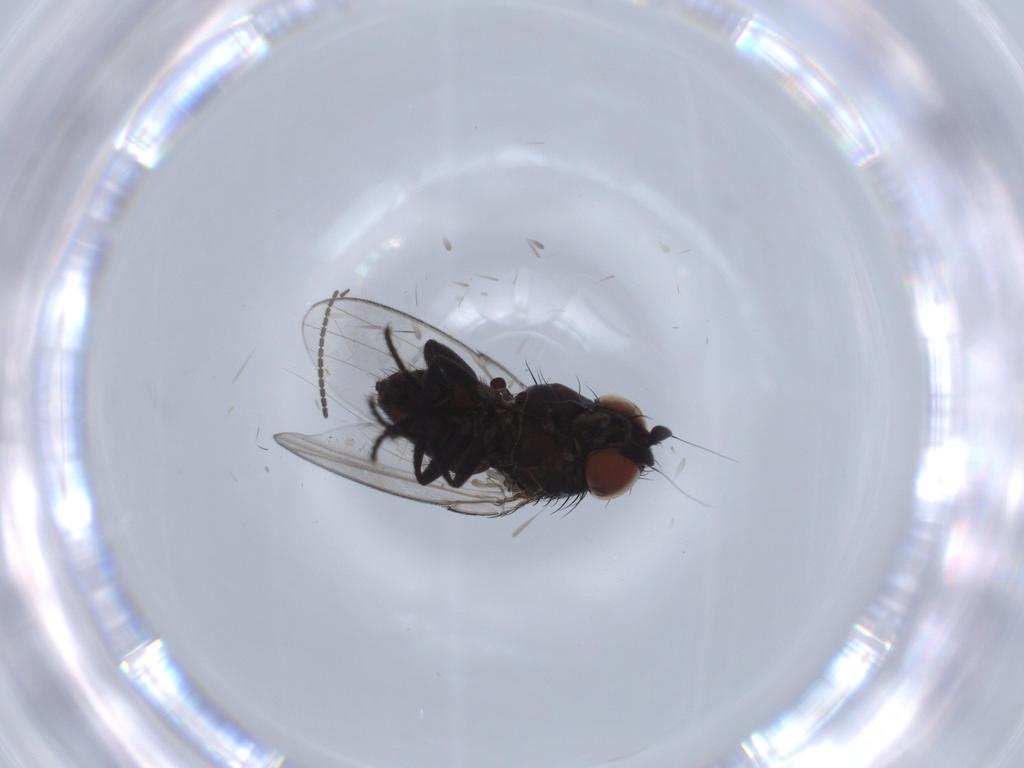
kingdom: Animalia
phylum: Arthropoda
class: Insecta
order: Diptera
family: Milichiidae
